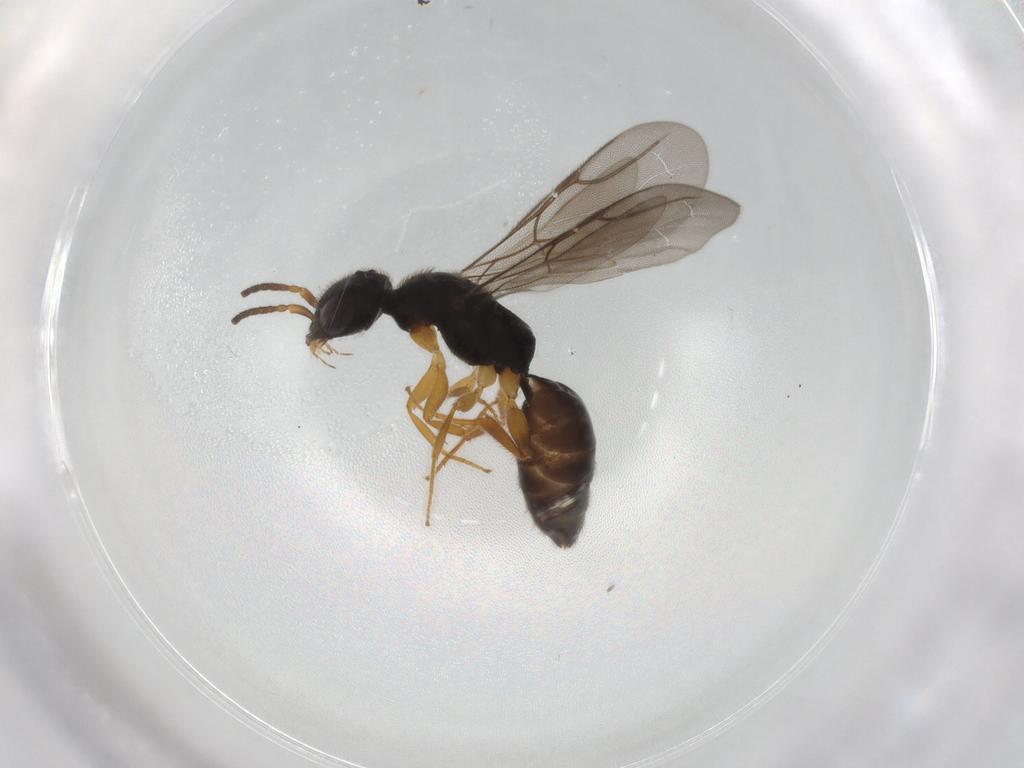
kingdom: Animalia
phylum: Arthropoda
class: Insecta
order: Hymenoptera
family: Bethylidae
